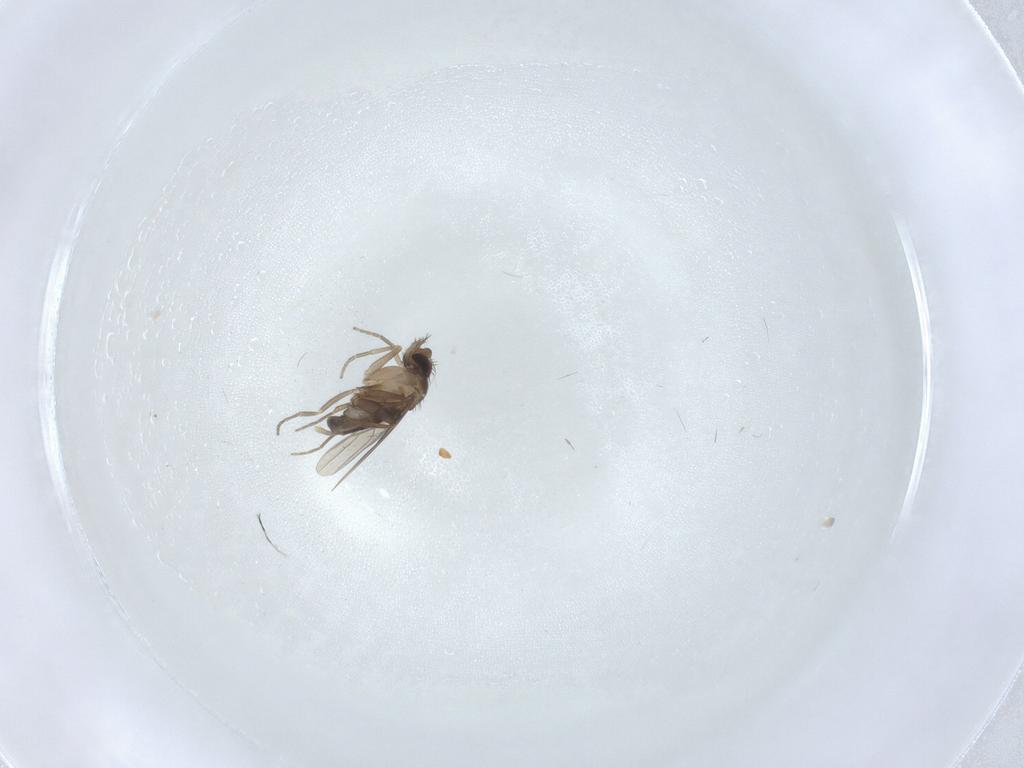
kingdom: Animalia
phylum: Arthropoda
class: Insecta
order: Diptera
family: Phoridae
